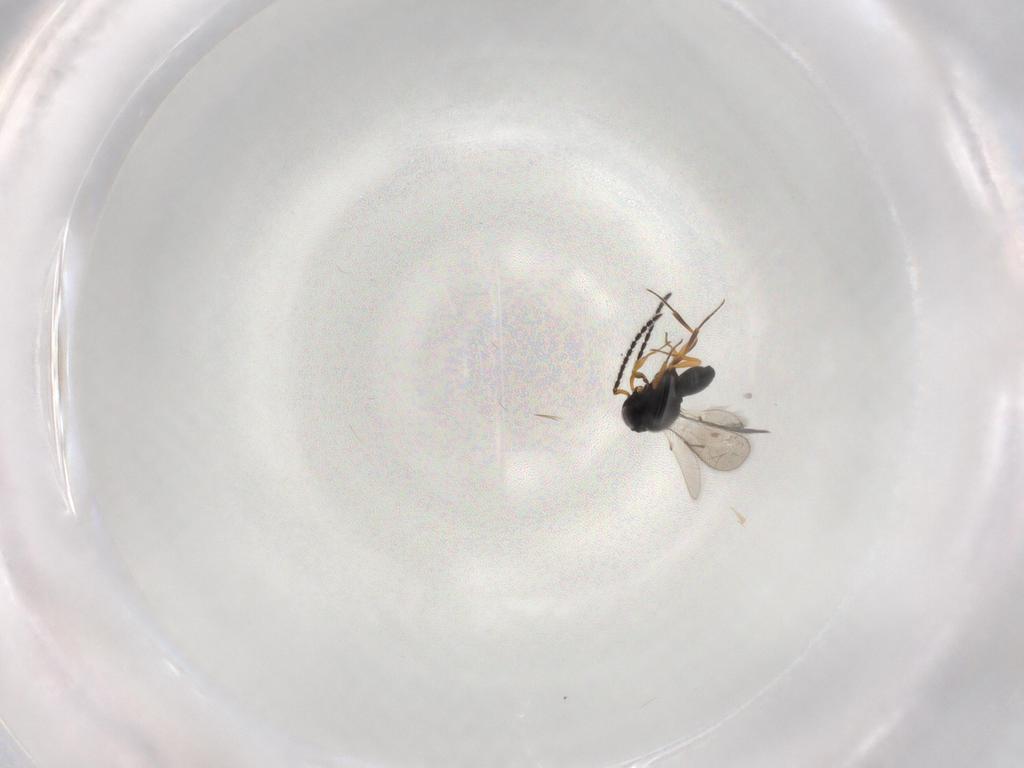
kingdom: Animalia
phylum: Arthropoda
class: Insecta
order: Hymenoptera
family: Scelionidae
